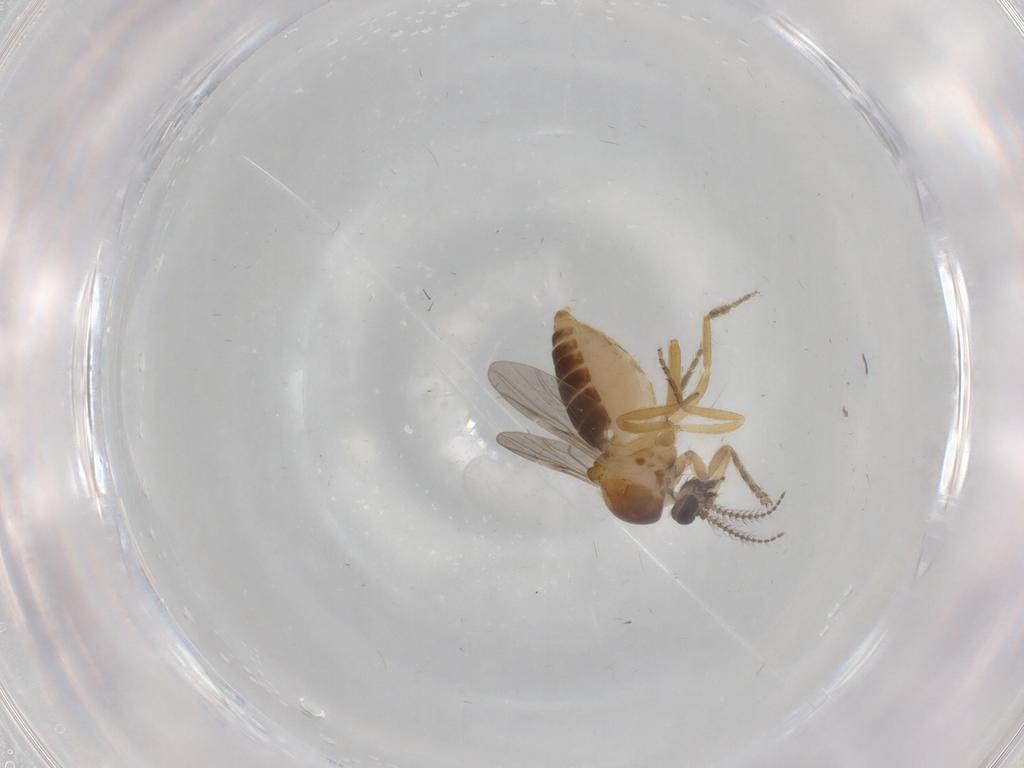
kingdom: Animalia
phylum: Arthropoda
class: Insecta
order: Diptera
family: Ceratopogonidae
